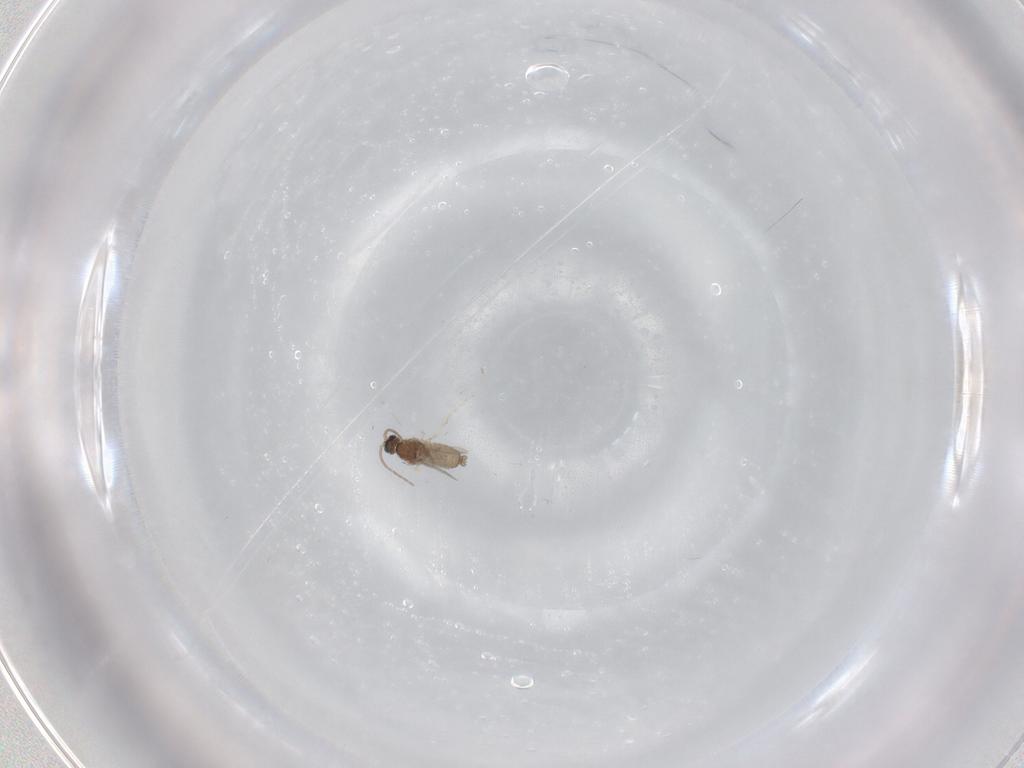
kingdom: Animalia
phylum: Arthropoda
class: Insecta
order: Diptera
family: Cecidomyiidae
